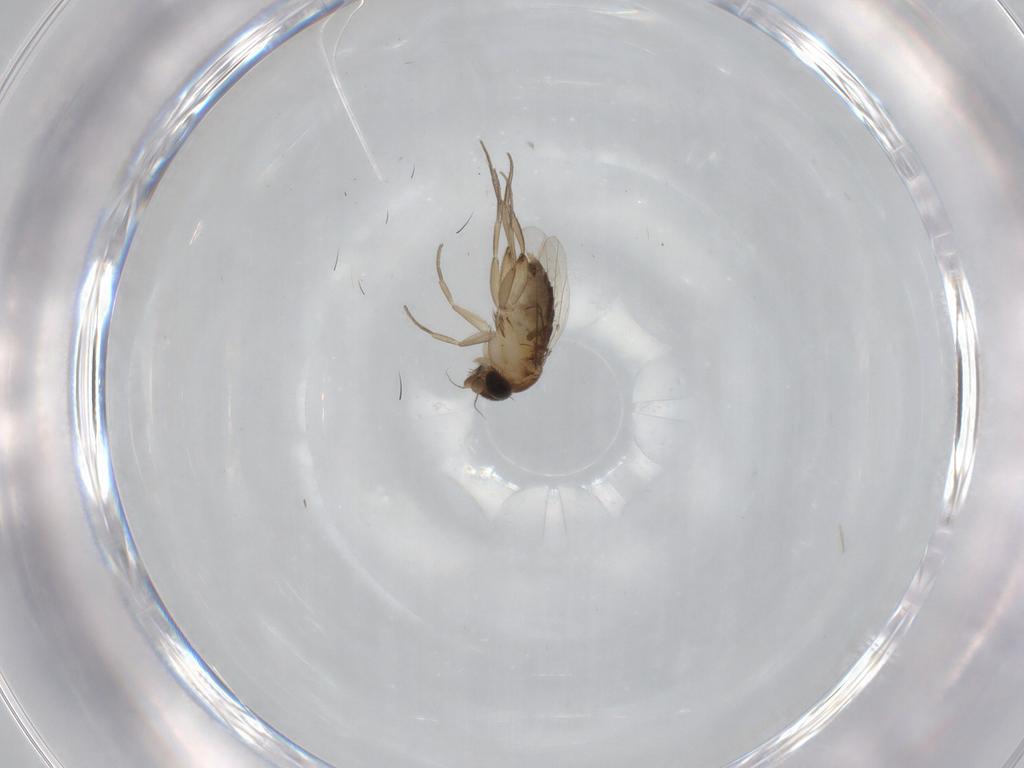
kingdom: Animalia
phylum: Arthropoda
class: Insecta
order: Diptera
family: Phoridae
